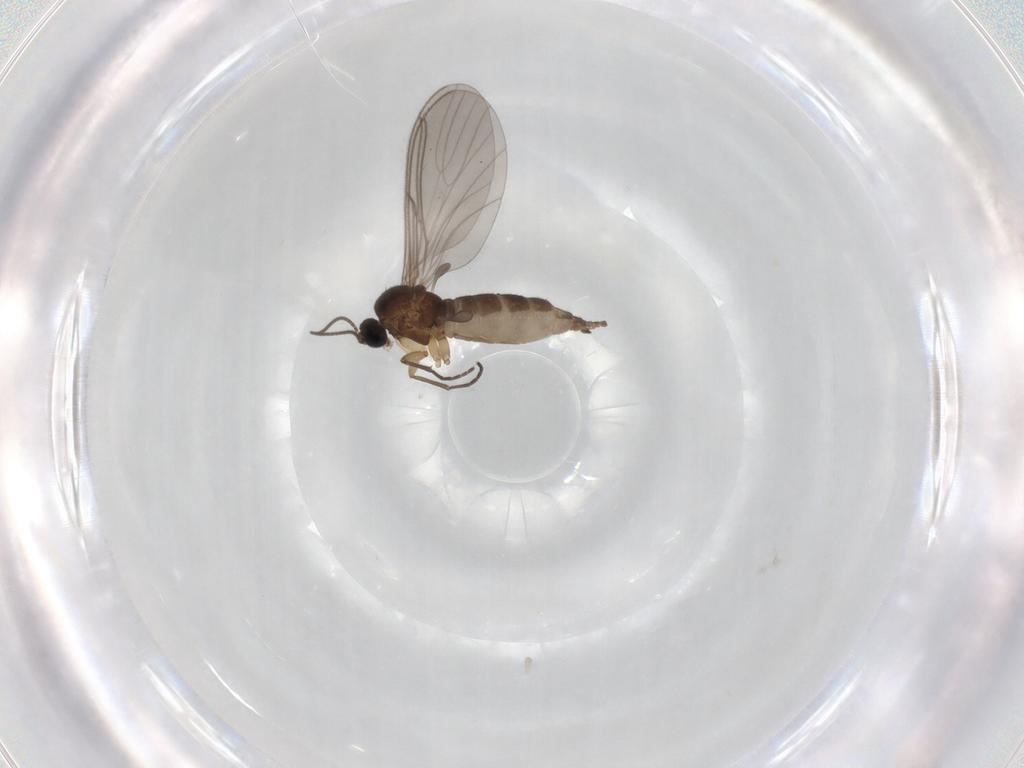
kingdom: Animalia
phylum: Arthropoda
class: Insecta
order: Diptera
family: Sciaridae
